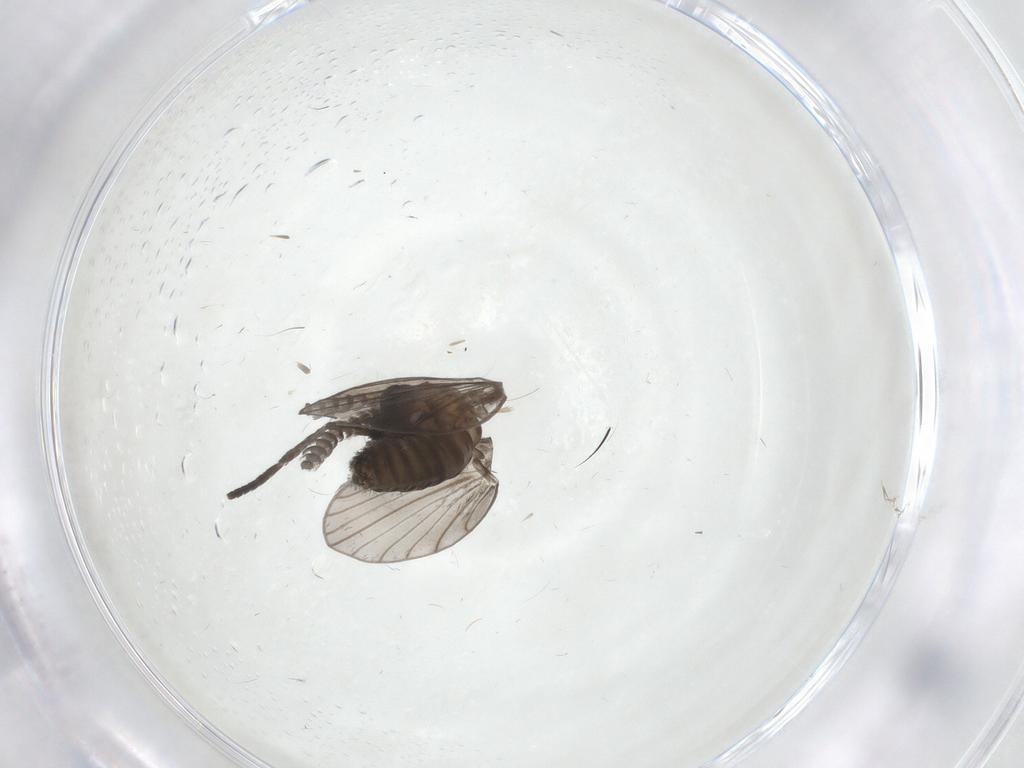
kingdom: Animalia
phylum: Arthropoda
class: Insecta
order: Diptera
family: Psychodidae
